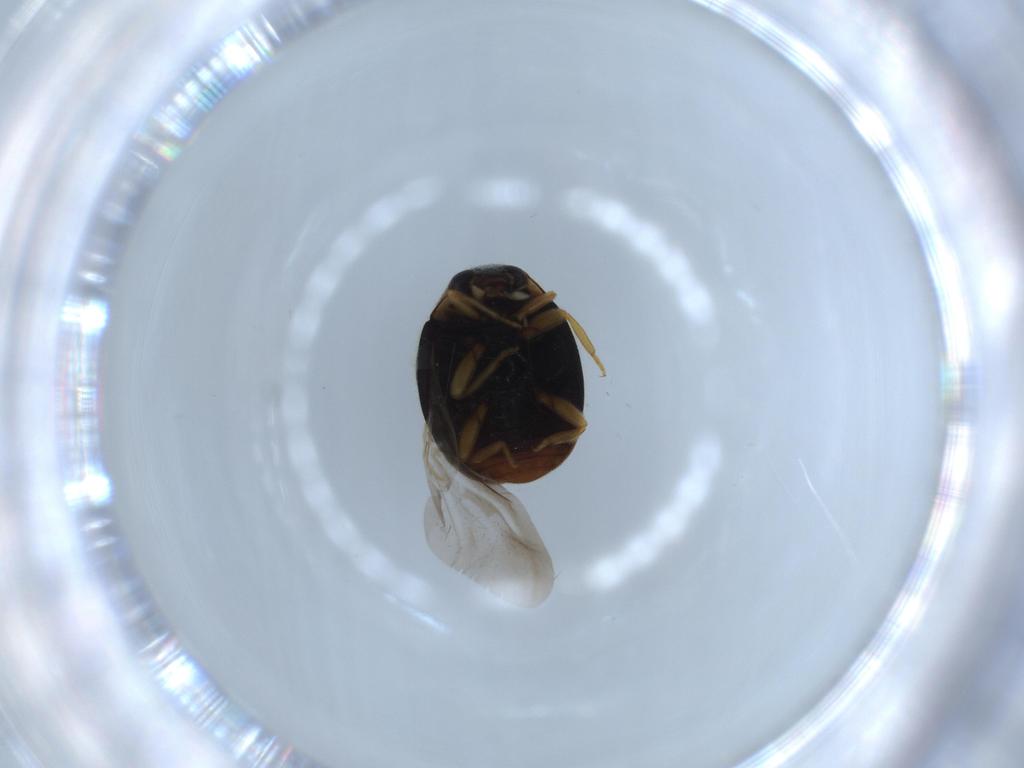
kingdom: Animalia
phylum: Arthropoda
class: Insecta
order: Coleoptera
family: Coccinellidae
